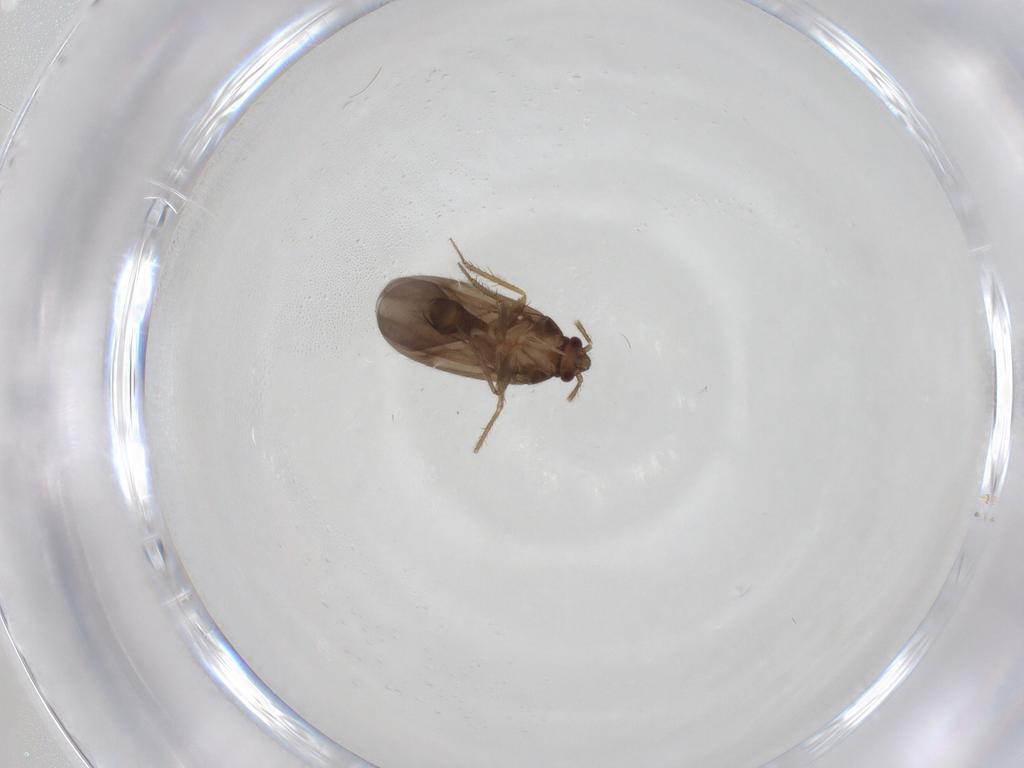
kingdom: Animalia
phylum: Arthropoda
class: Insecta
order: Hemiptera
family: Ceratocombidae
